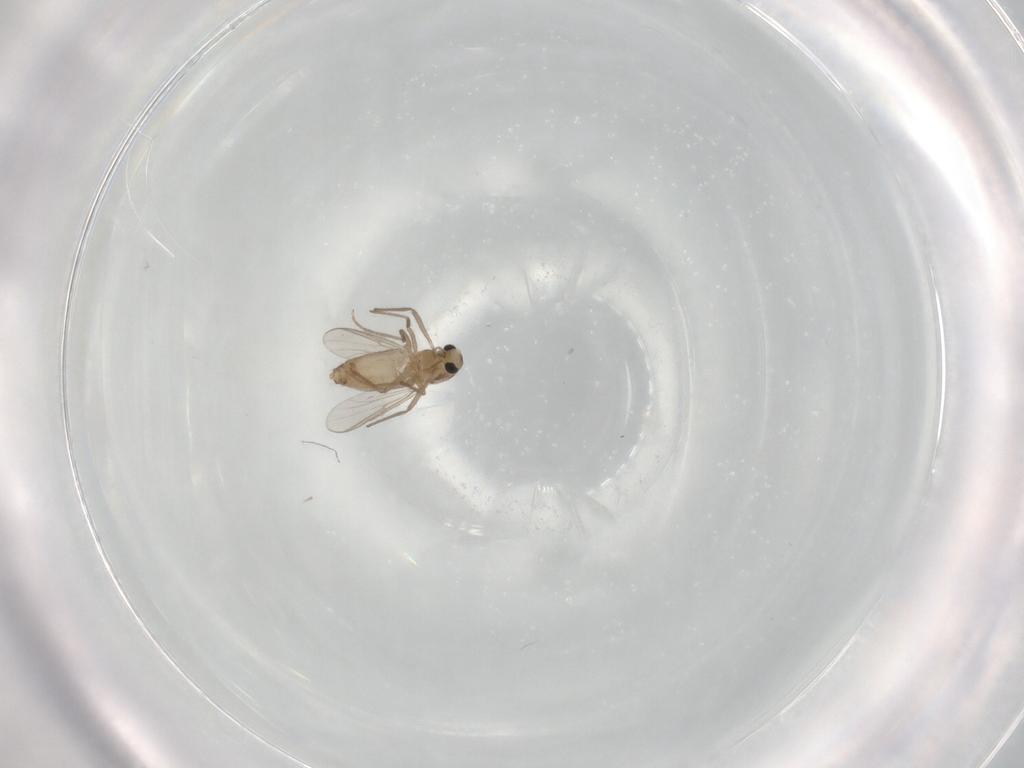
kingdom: Animalia
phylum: Arthropoda
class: Insecta
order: Diptera
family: Chironomidae
